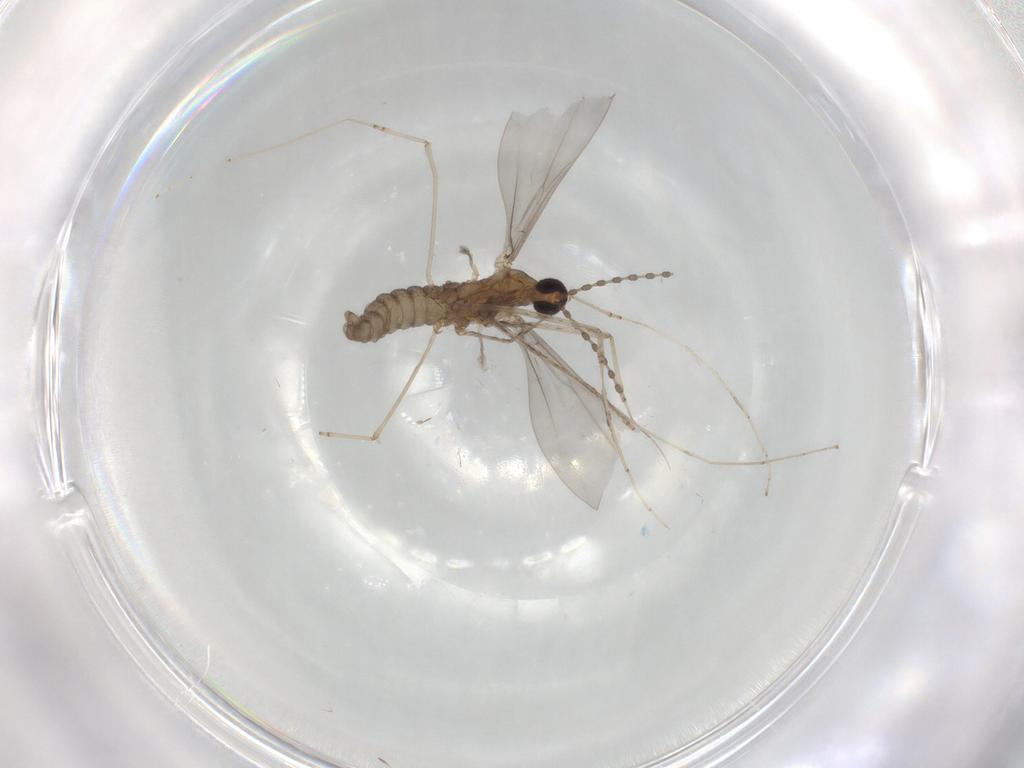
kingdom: Animalia
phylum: Arthropoda
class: Insecta
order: Diptera
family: Cecidomyiidae
